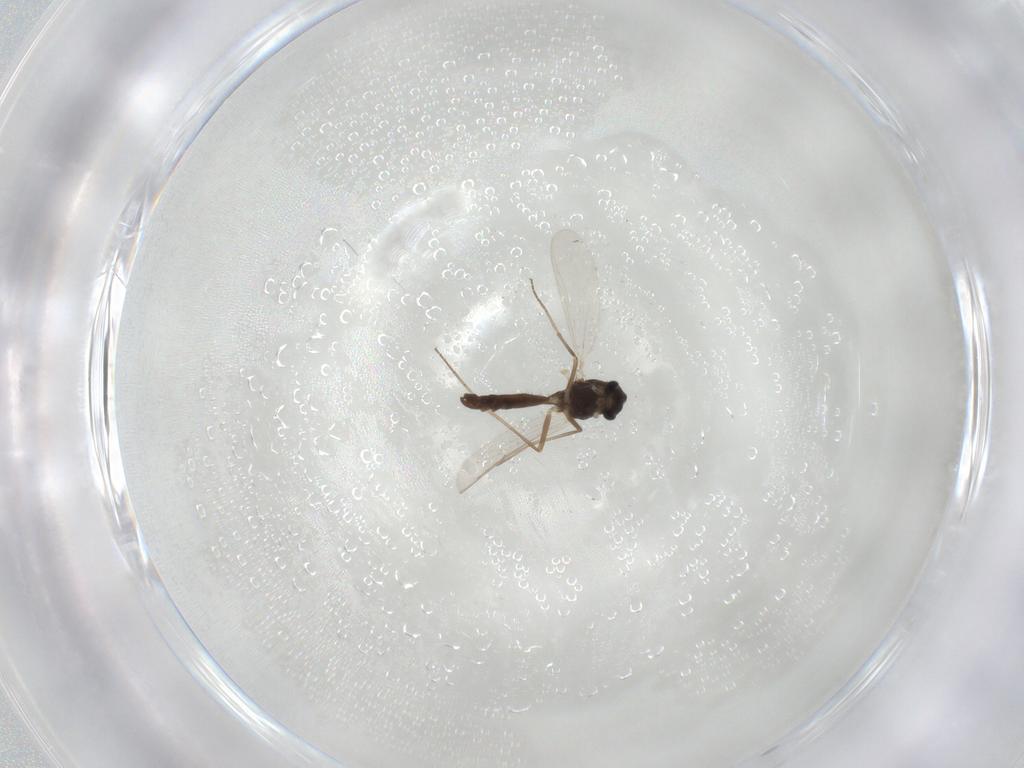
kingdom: Animalia
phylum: Arthropoda
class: Insecta
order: Diptera
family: Chironomidae
